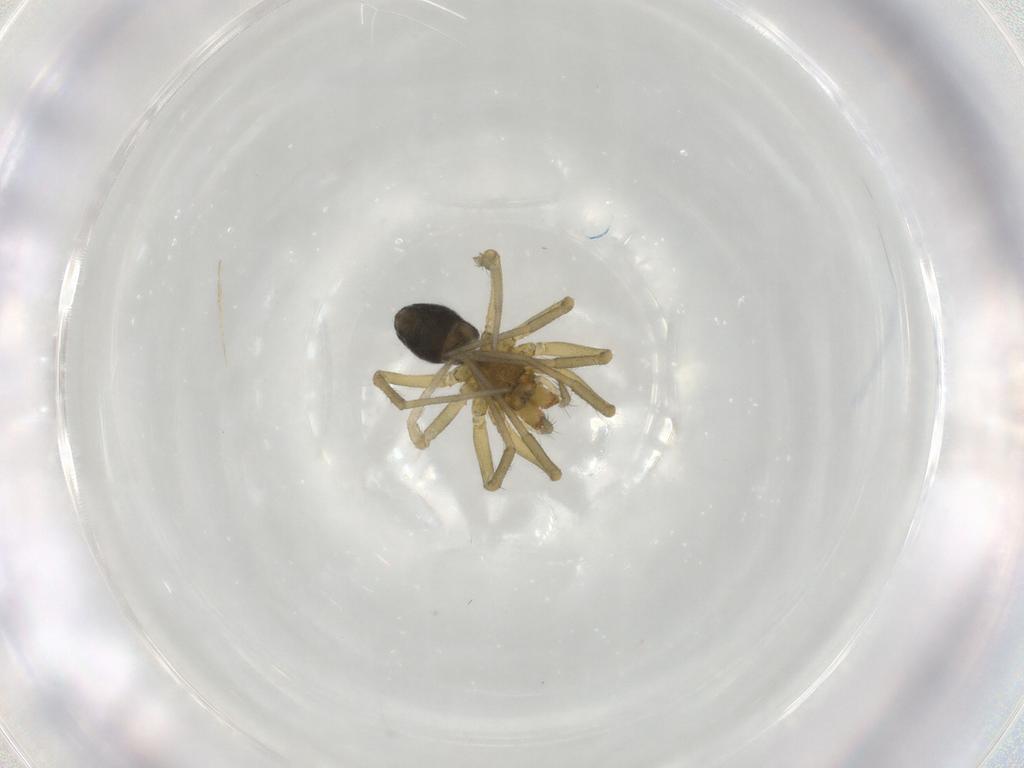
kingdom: Animalia
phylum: Arthropoda
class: Arachnida
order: Araneae
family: Linyphiidae
